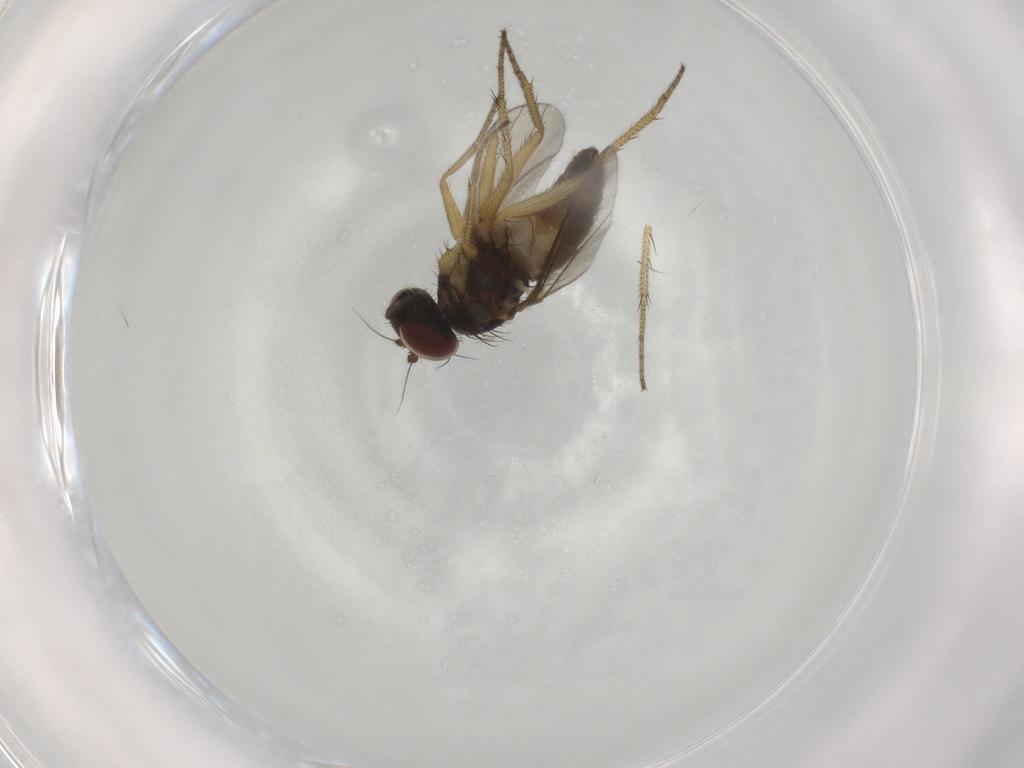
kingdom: Animalia
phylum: Arthropoda
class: Insecta
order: Diptera
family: Dolichopodidae
